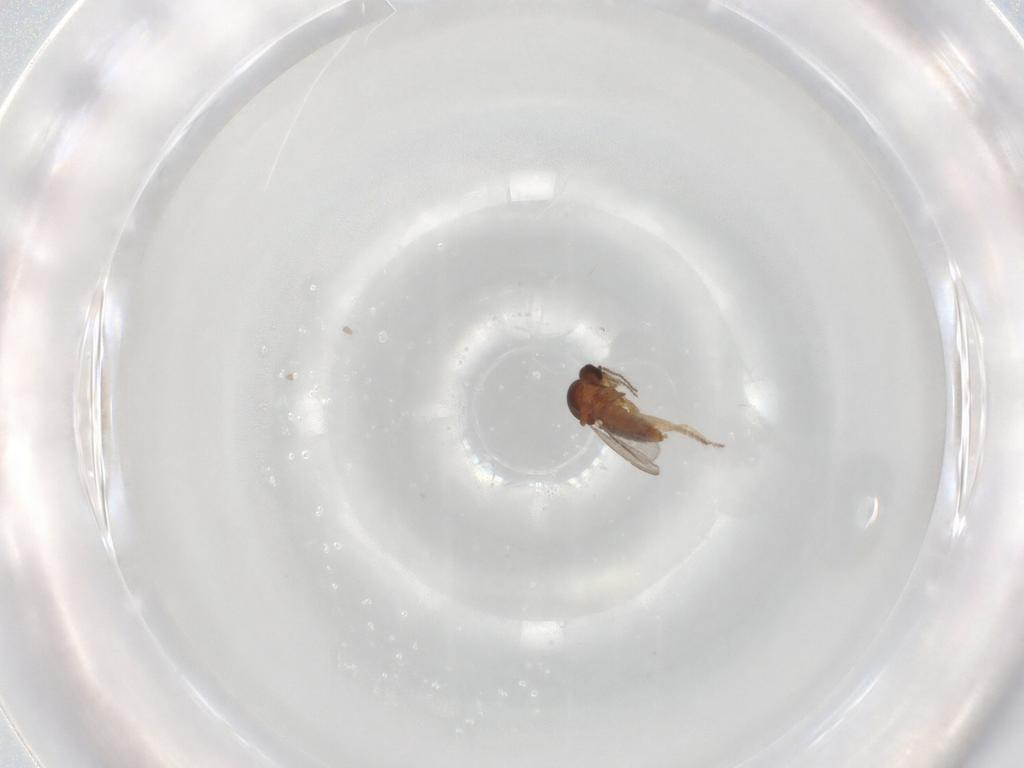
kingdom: Animalia
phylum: Arthropoda
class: Insecta
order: Diptera
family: Ceratopogonidae
